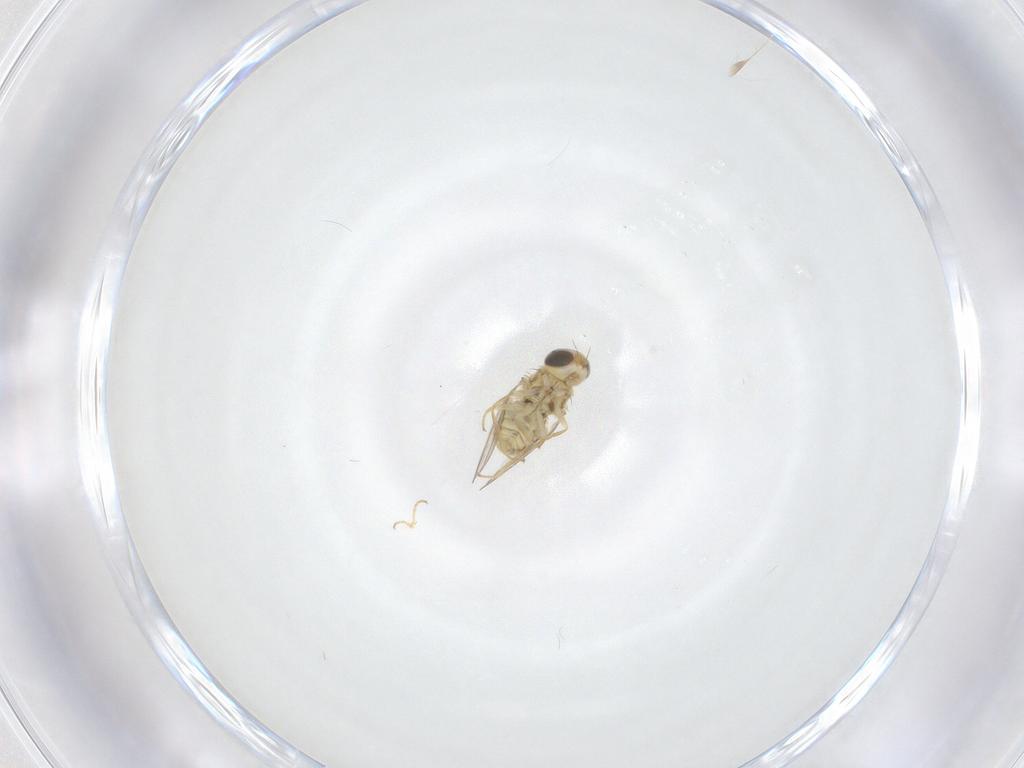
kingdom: Animalia
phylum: Arthropoda
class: Insecta
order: Diptera
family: Chyromyidae
